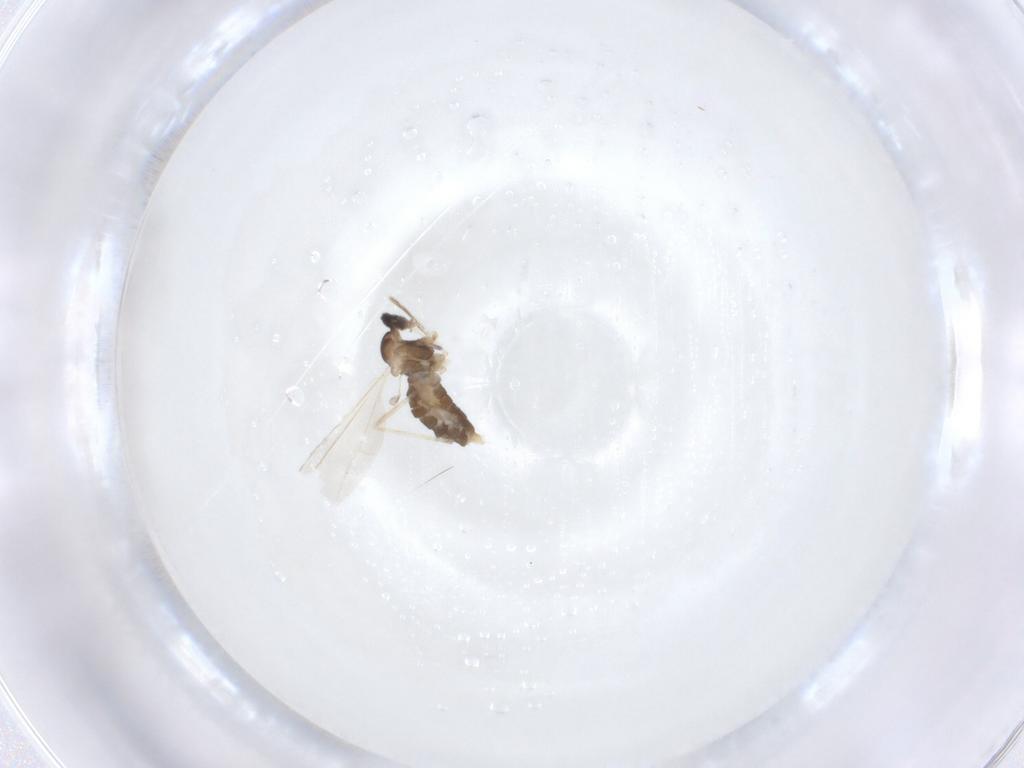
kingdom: Animalia
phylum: Arthropoda
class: Insecta
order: Diptera
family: Cecidomyiidae
